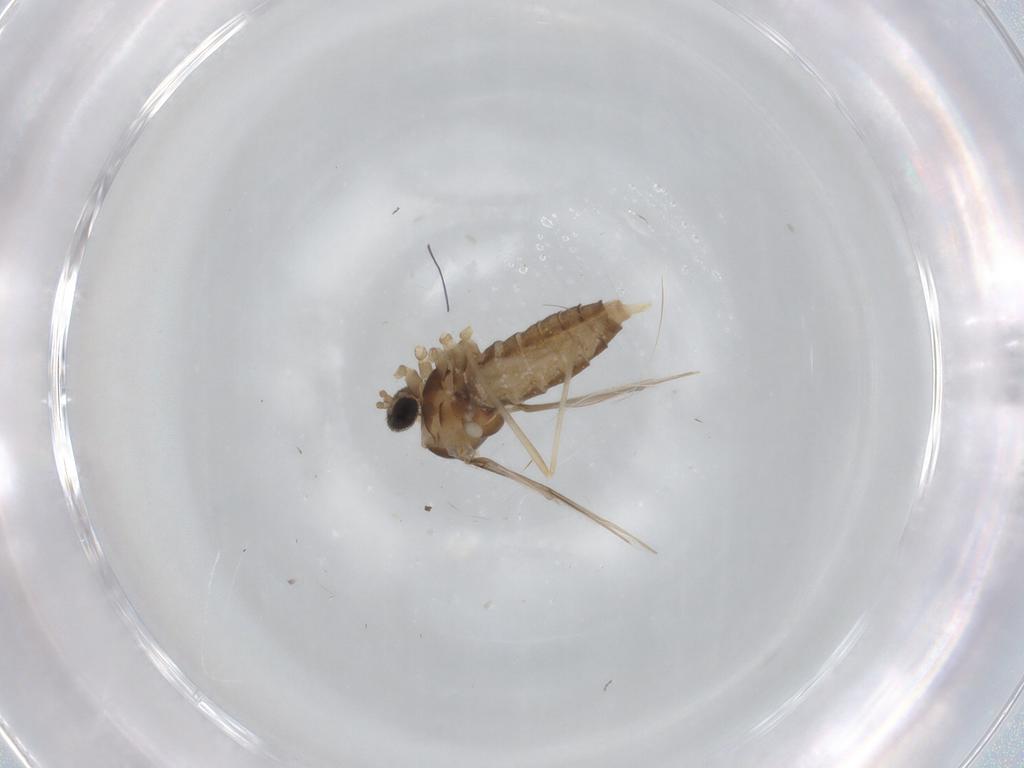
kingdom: Animalia
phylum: Arthropoda
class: Insecta
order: Diptera
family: Cecidomyiidae
